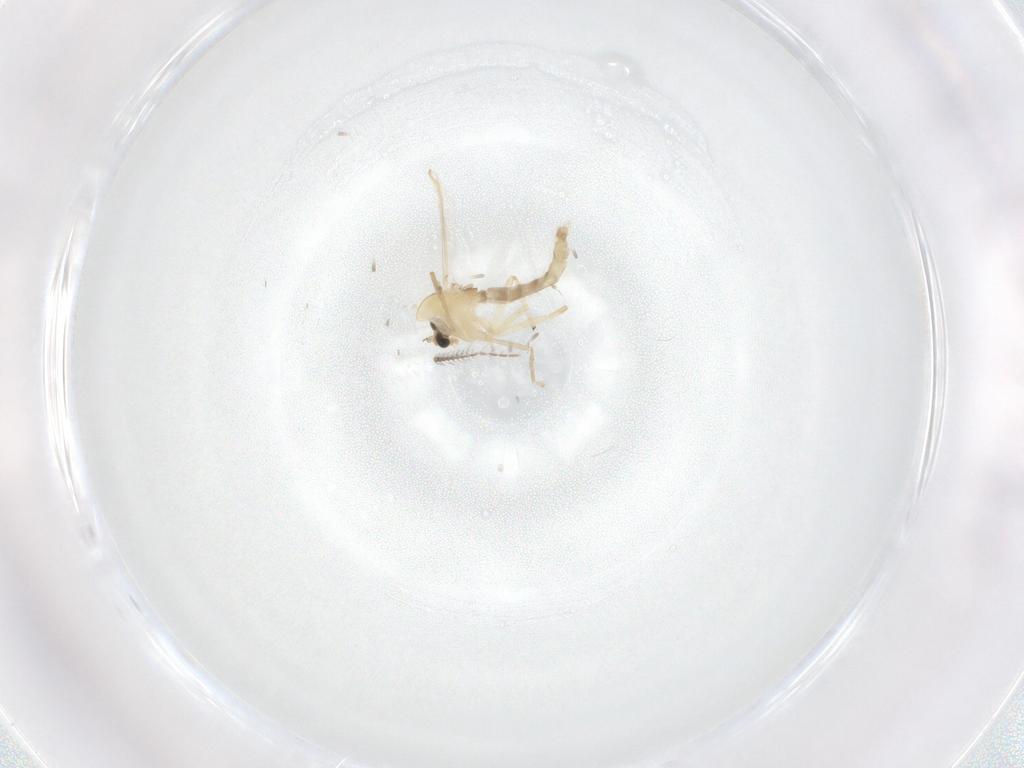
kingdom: Animalia
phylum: Arthropoda
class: Insecta
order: Diptera
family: Chironomidae
